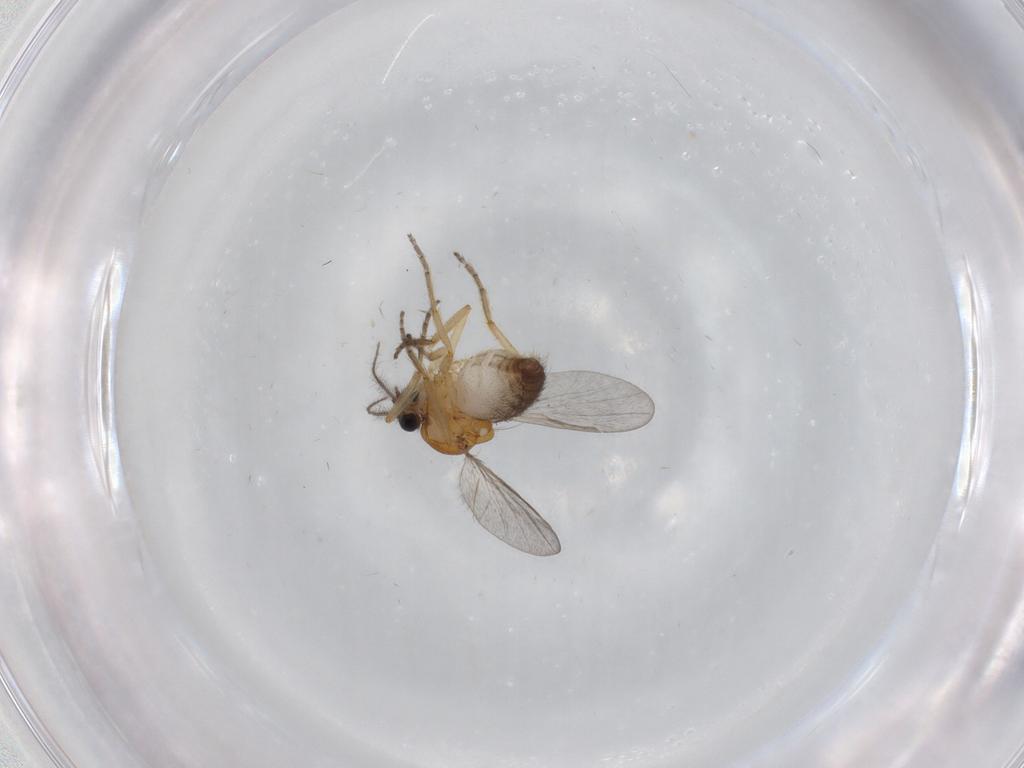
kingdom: Animalia
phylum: Arthropoda
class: Insecta
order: Diptera
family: Ceratopogonidae
